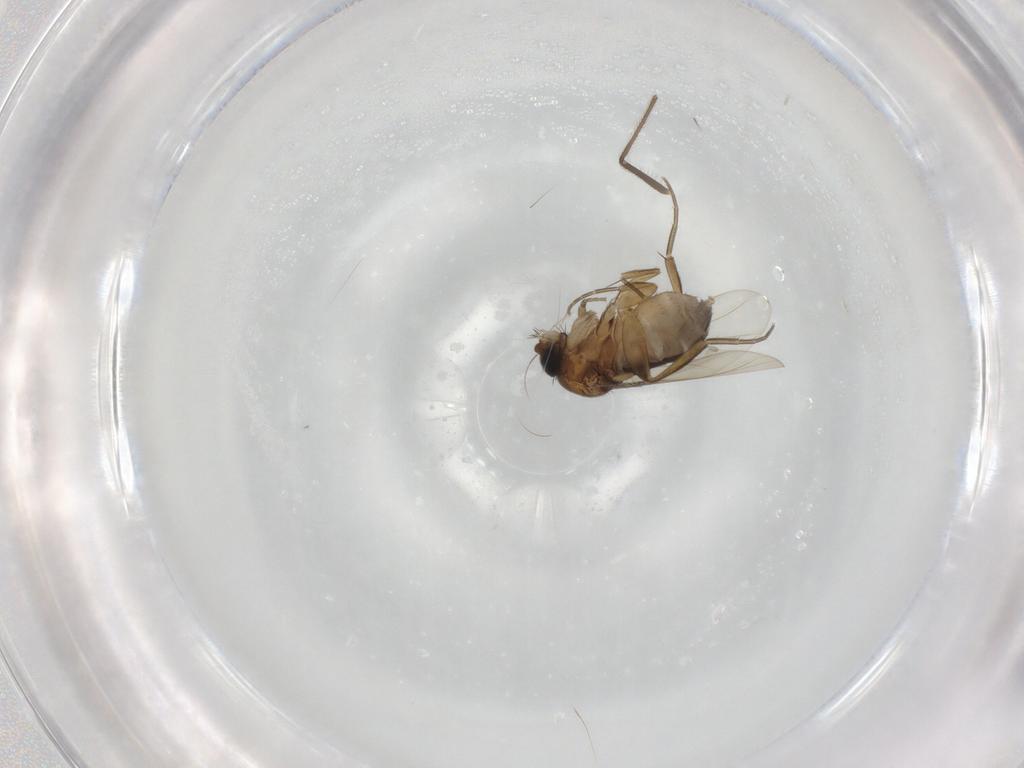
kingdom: Animalia
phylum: Arthropoda
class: Insecta
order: Diptera
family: Phoridae
